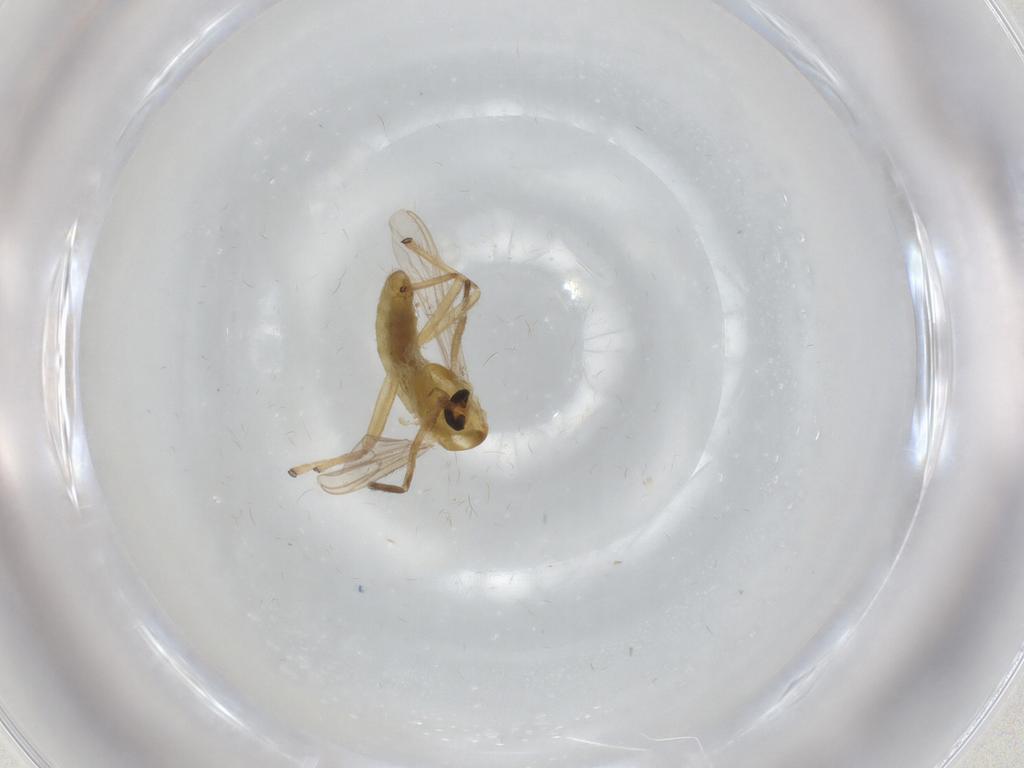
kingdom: Animalia
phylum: Arthropoda
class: Insecta
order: Diptera
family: Chironomidae
